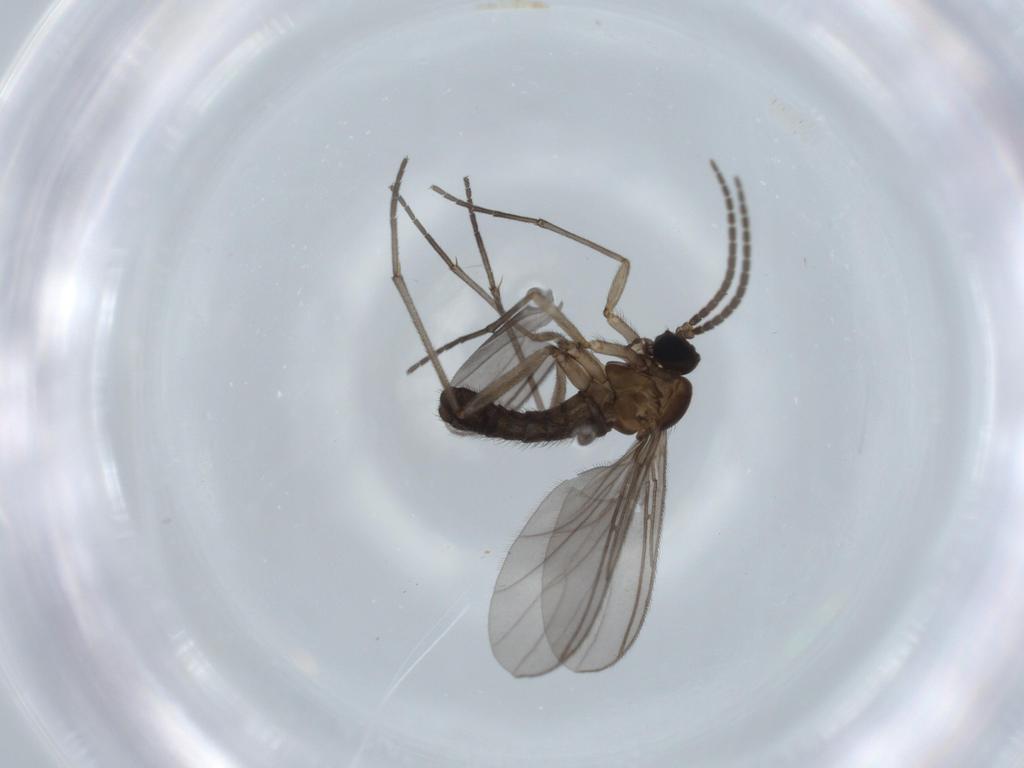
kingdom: Animalia
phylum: Arthropoda
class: Insecta
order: Diptera
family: Sciaridae
